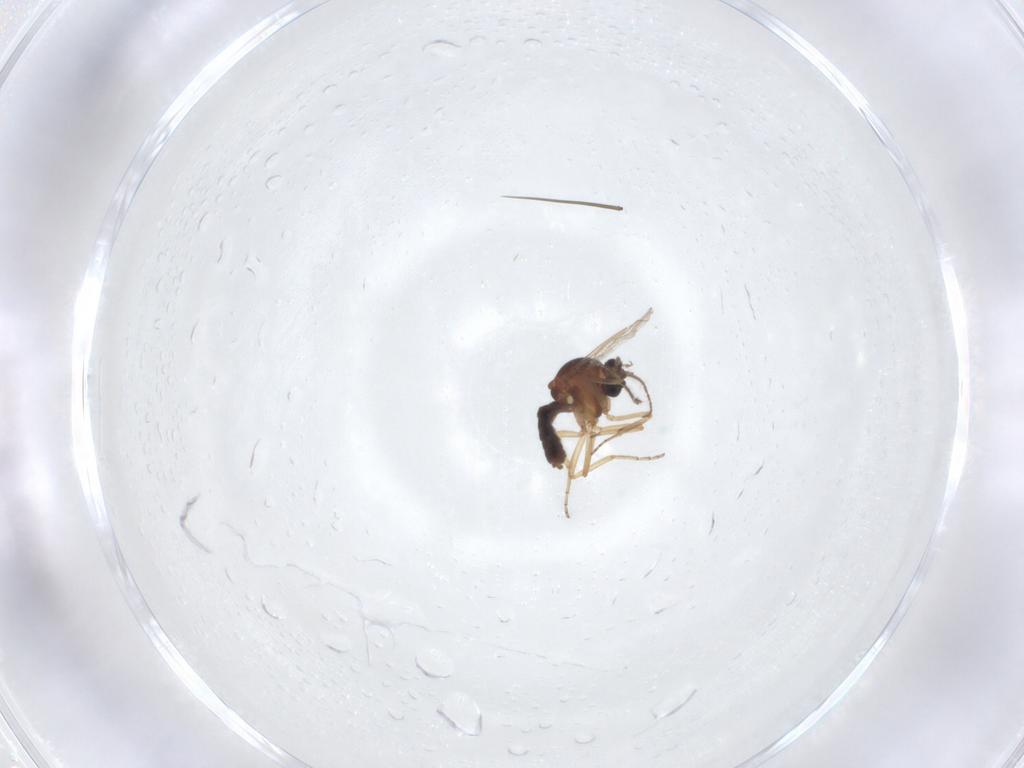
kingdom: Animalia
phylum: Arthropoda
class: Insecta
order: Diptera
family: Ceratopogonidae
